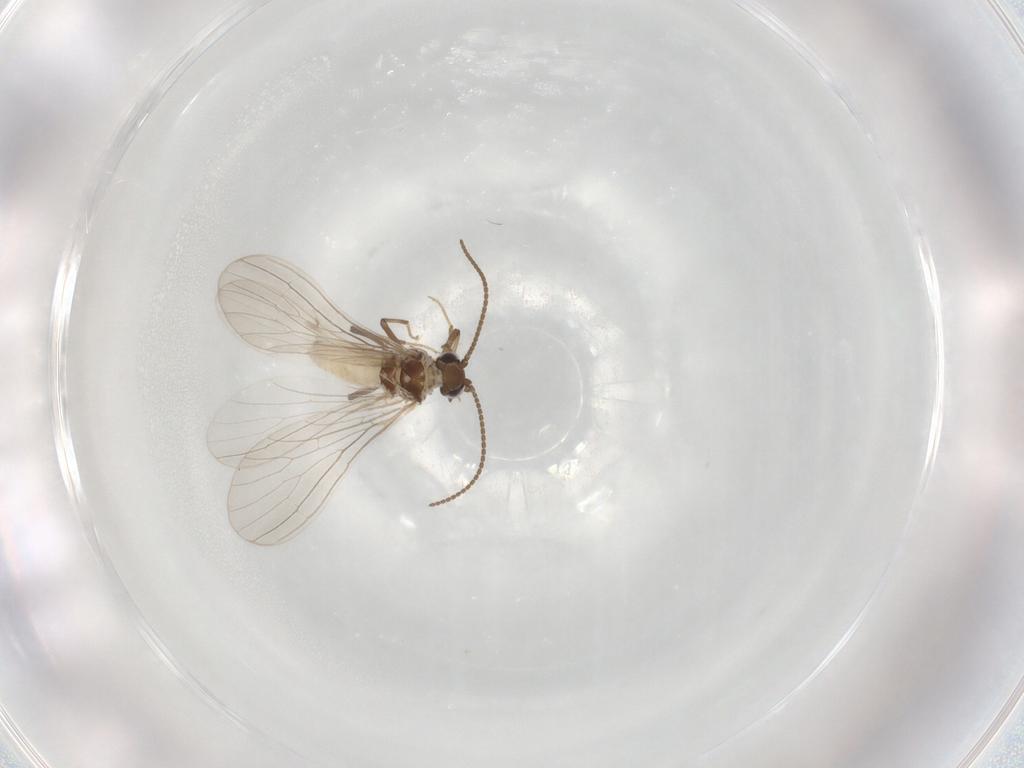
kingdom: Animalia
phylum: Arthropoda
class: Insecta
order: Neuroptera
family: Coniopterygidae
